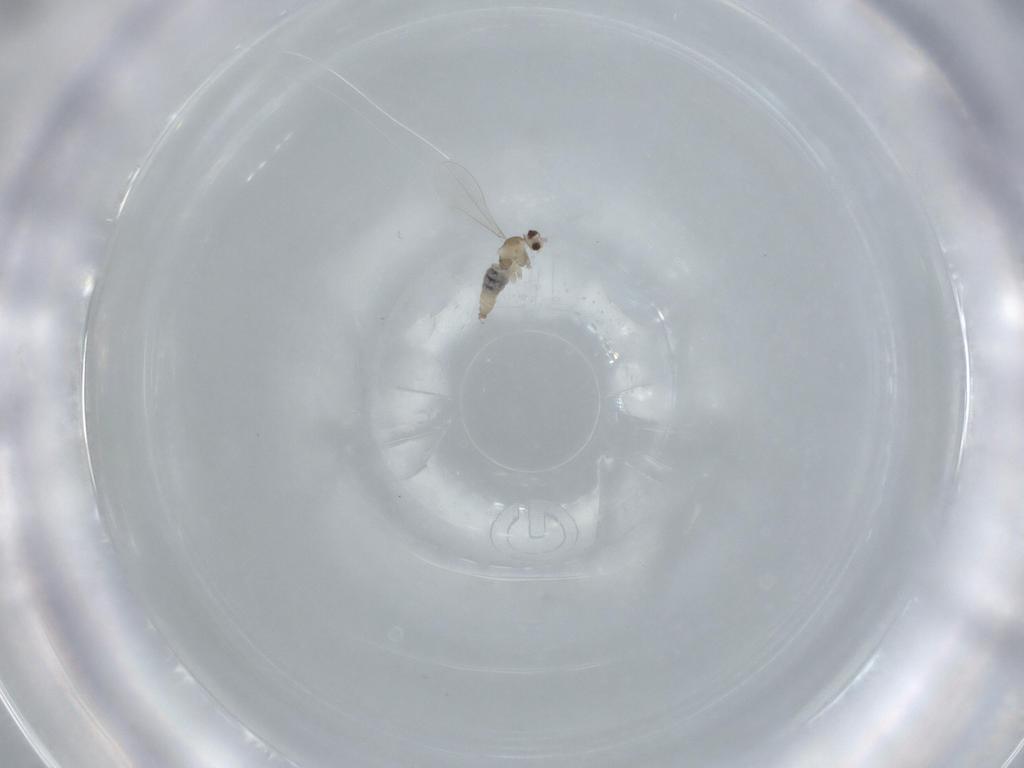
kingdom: Animalia
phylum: Arthropoda
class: Insecta
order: Diptera
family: Cecidomyiidae
